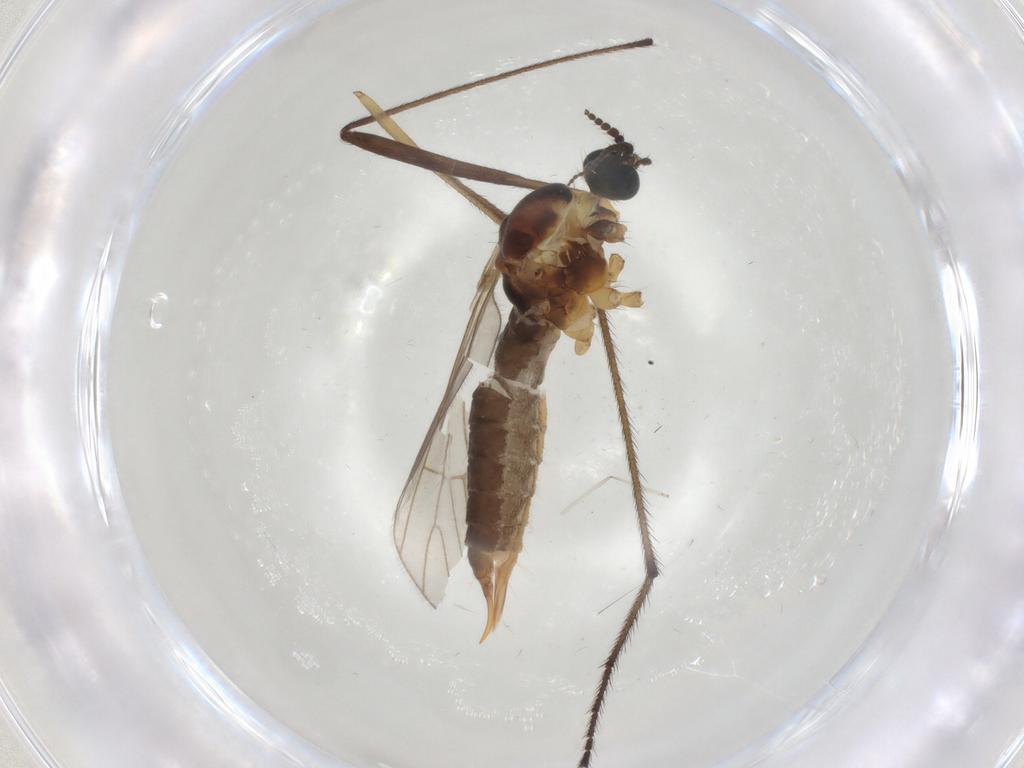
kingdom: Animalia
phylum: Arthropoda
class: Insecta
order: Diptera
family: Agromyzidae
